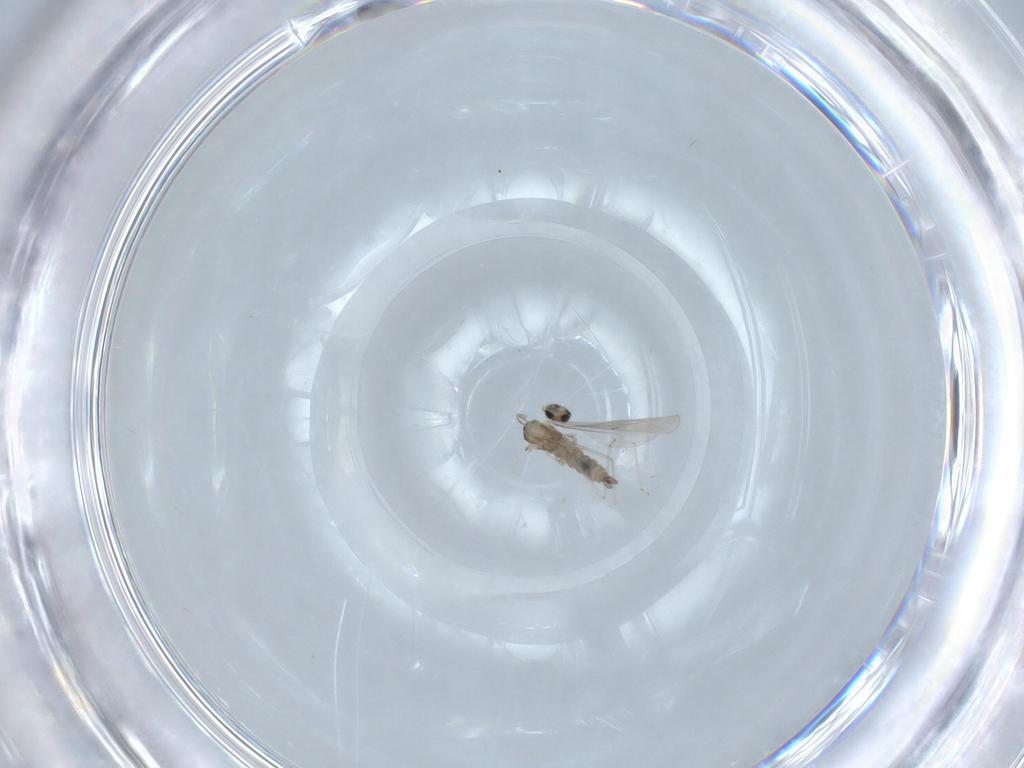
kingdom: Animalia
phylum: Arthropoda
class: Insecta
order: Diptera
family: Cecidomyiidae
